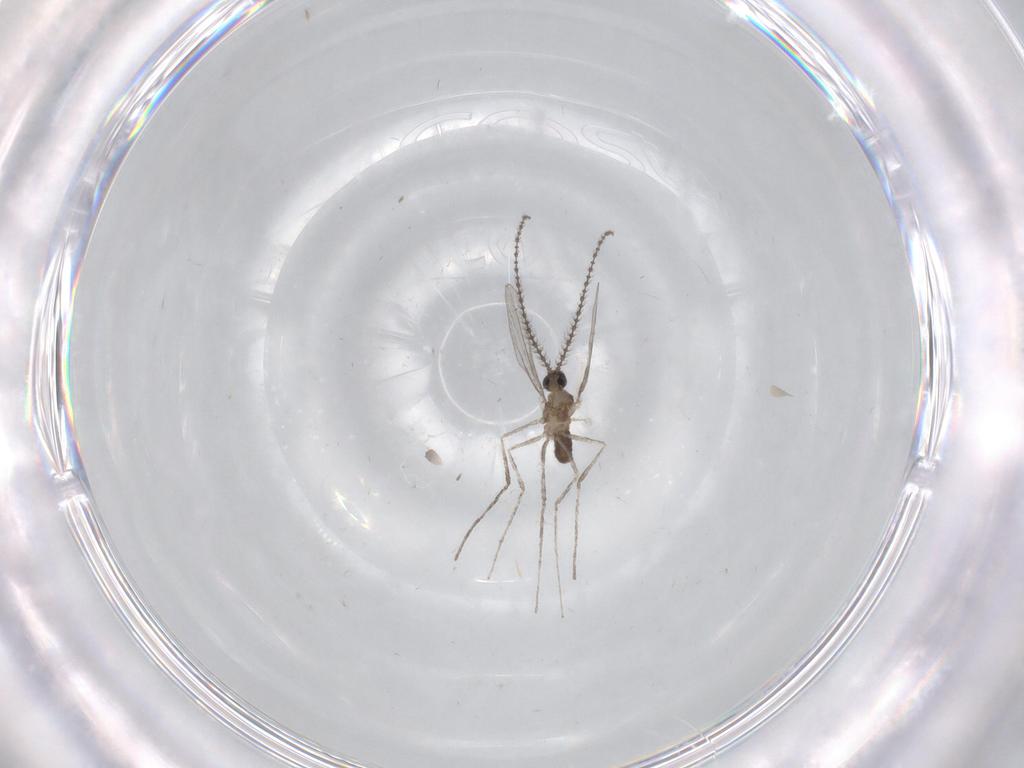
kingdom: Animalia
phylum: Arthropoda
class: Insecta
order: Diptera
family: Cecidomyiidae
